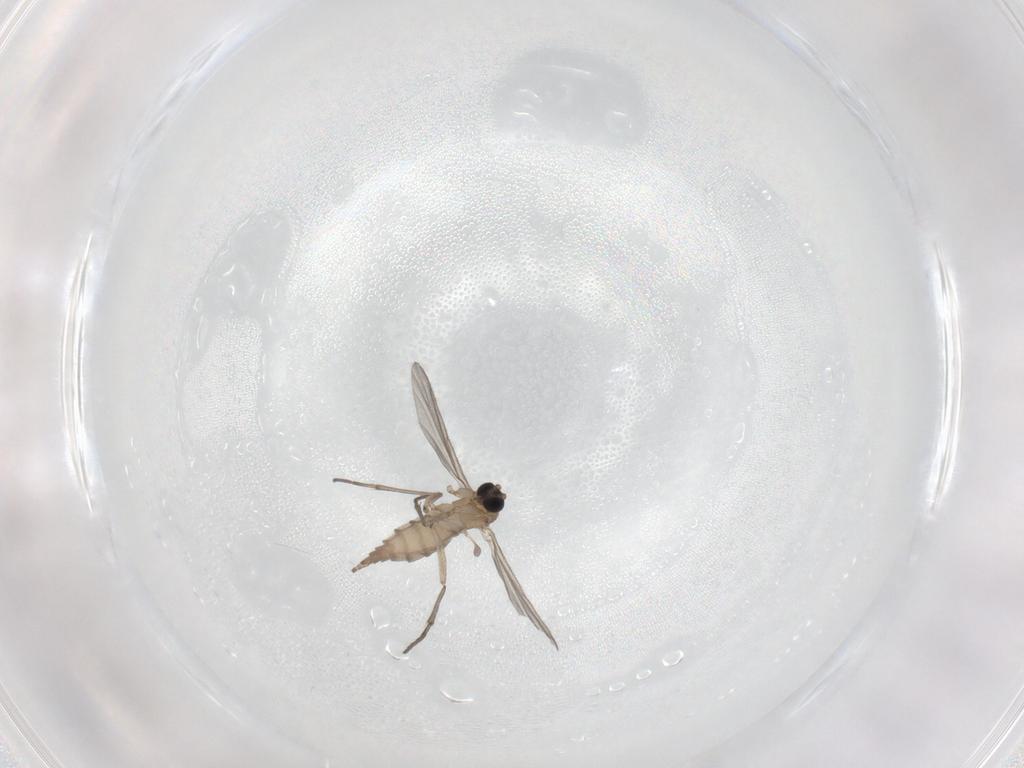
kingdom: Animalia
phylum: Arthropoda
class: Insecta
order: Diptera
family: Sciaridae
